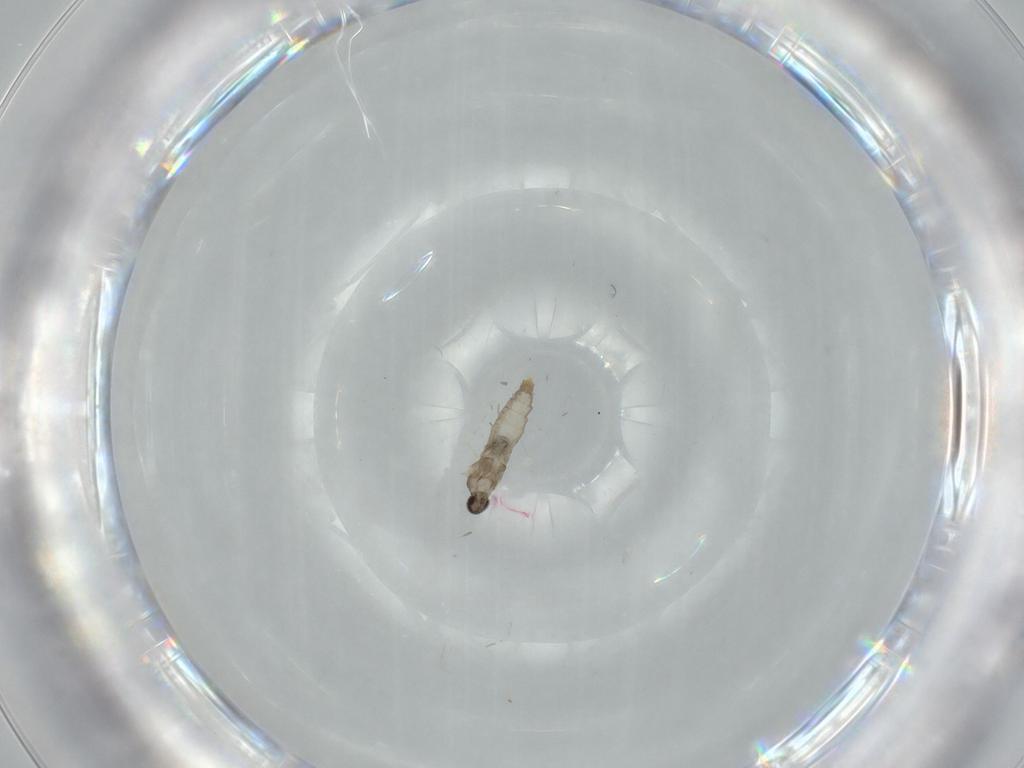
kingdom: Animalia
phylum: Arthropoda
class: Insecta
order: Diptera
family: Cecidomyiidae
